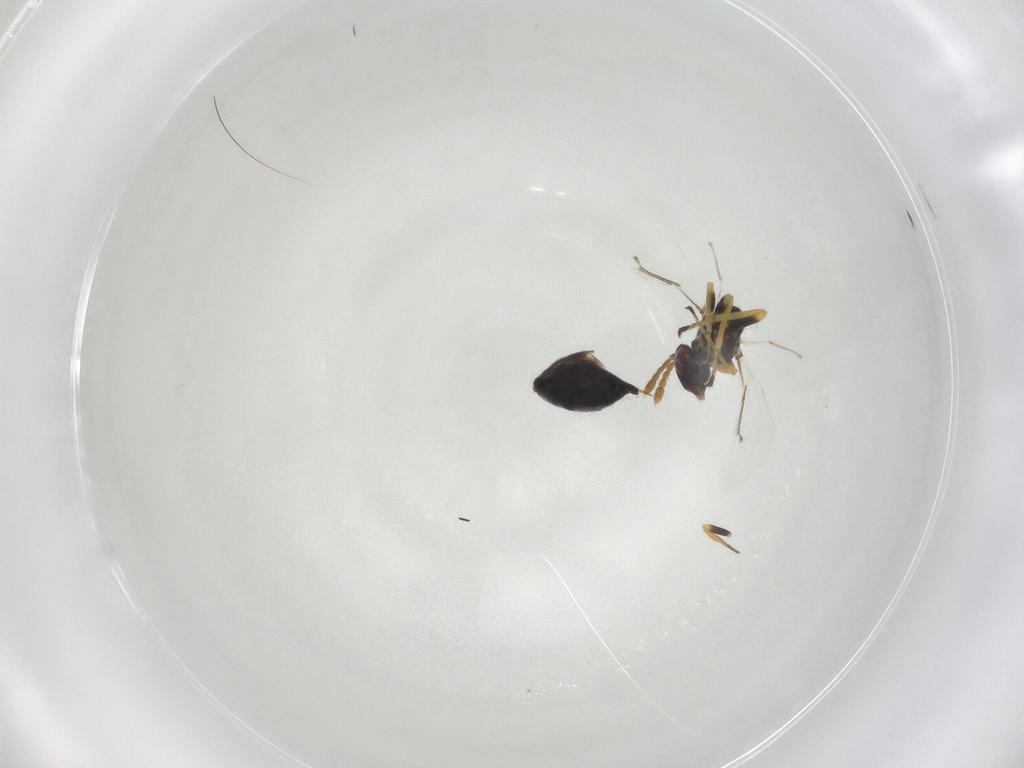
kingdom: Animalia
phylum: Arthropoda
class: Insecta
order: Hymenoptera
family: Eulophidae
